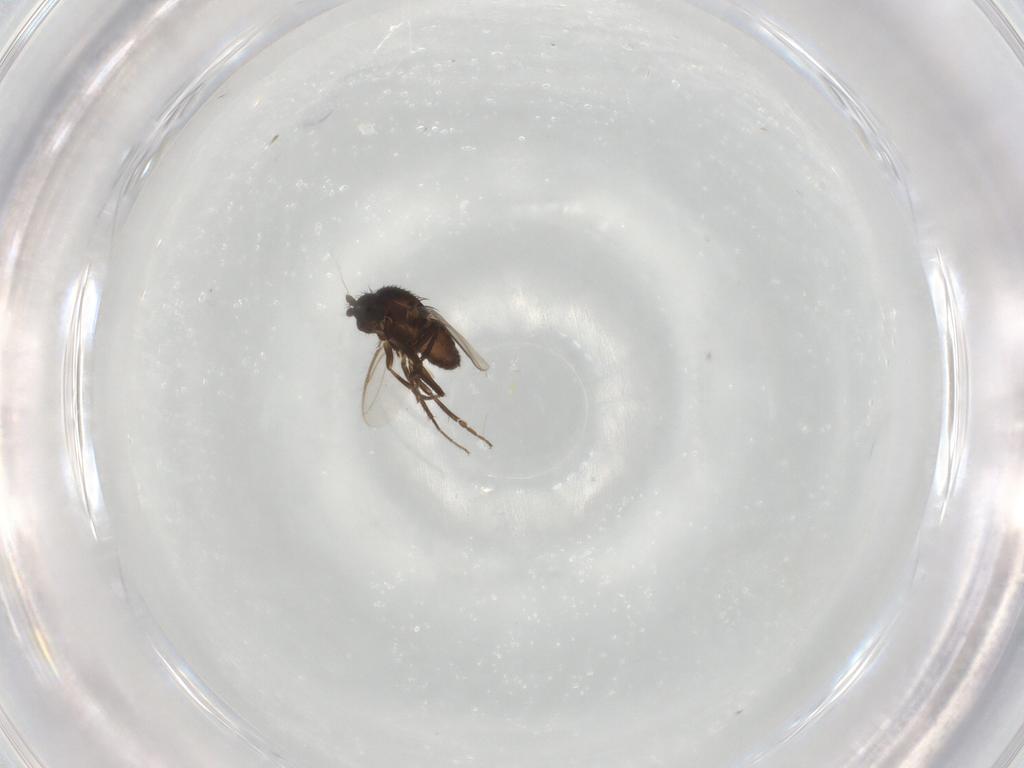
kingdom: Animalia
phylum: Arthropoda
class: Insecta
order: Diptera
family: Sphaeroceridae
